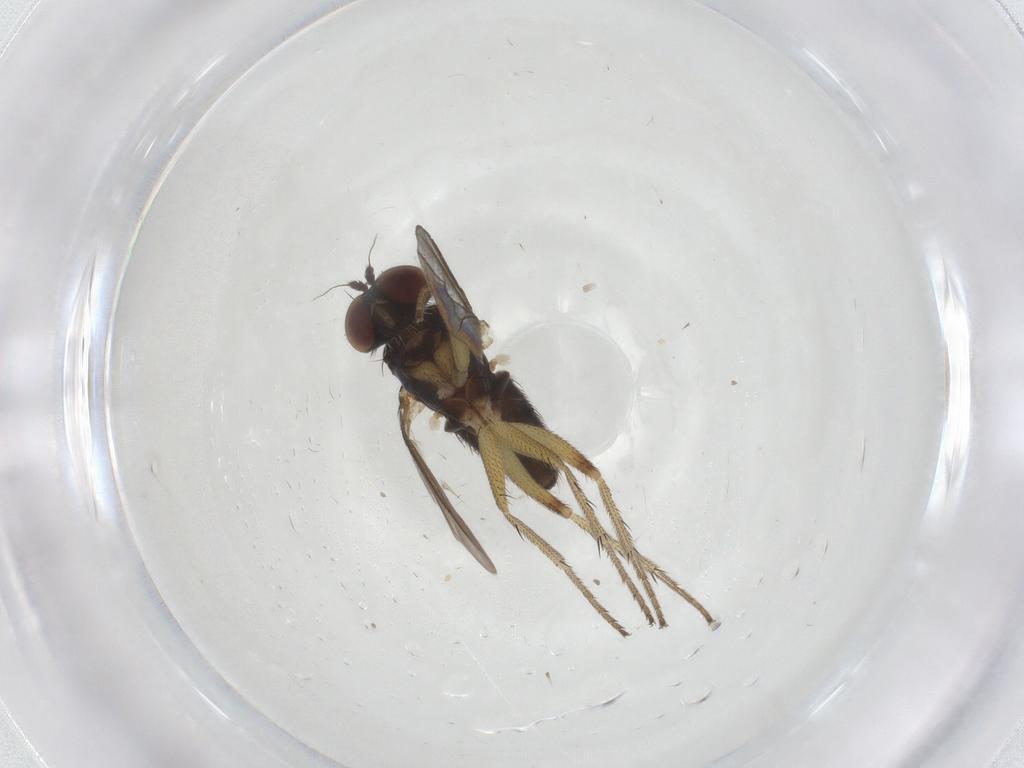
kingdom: Animalia
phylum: Arthropoda
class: Insecta
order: Diptera
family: Dolichopodidae
